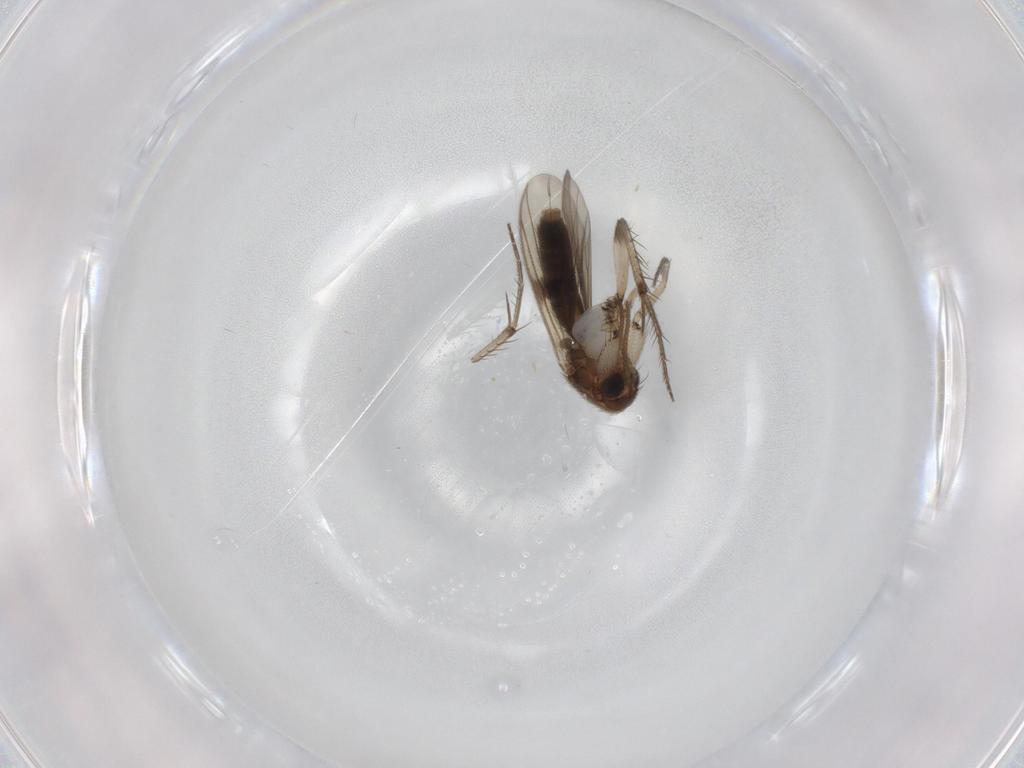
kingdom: Animalia
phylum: Arthropoda
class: Insecta
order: Diptera
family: Mycetophilidae
